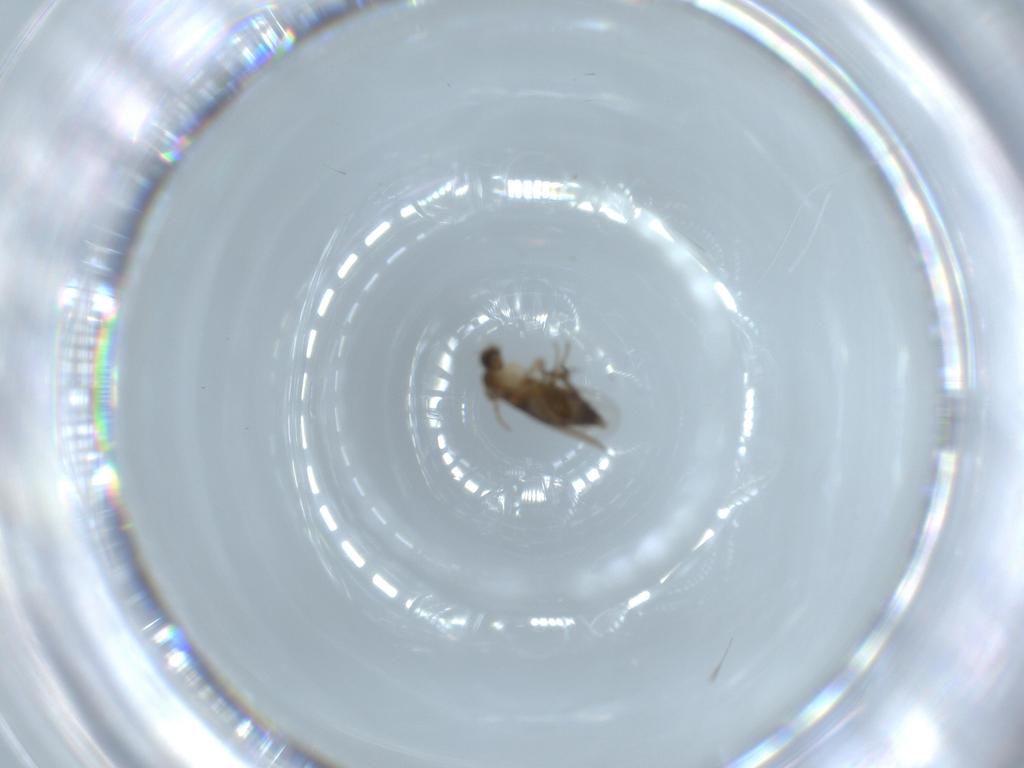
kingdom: Animalia
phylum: Arthropoda
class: Insecta
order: Diptera
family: Phoridae
